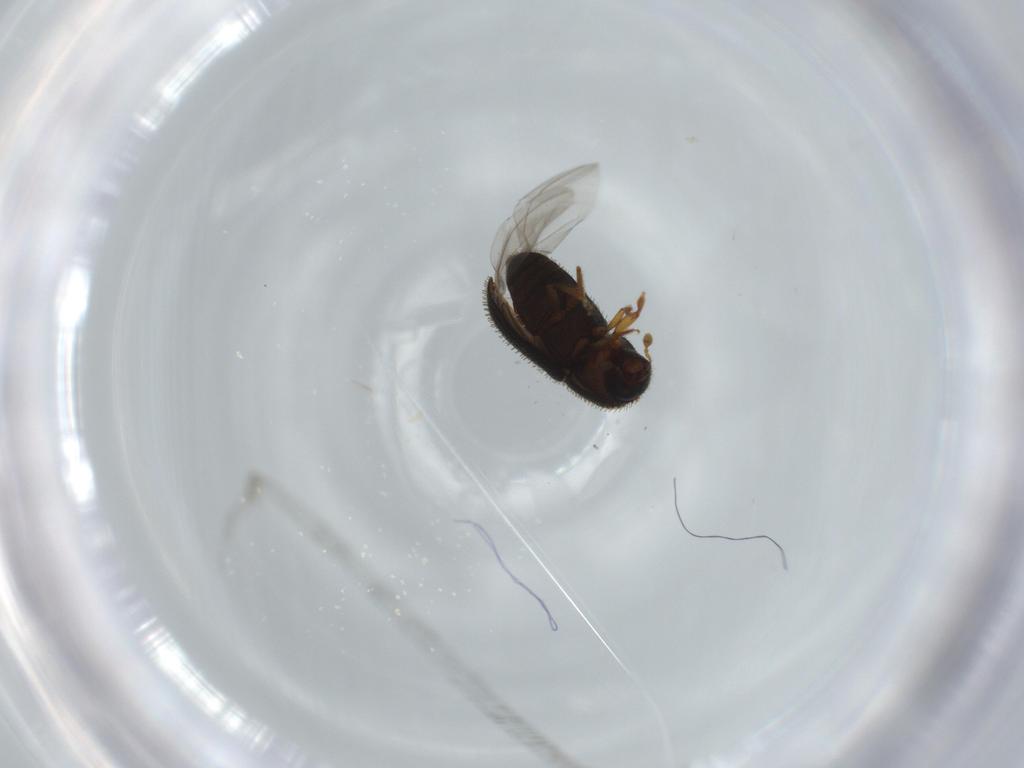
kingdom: Animalia
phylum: Arthropoda
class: Insecta
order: Coleoptera
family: Curculionidae
